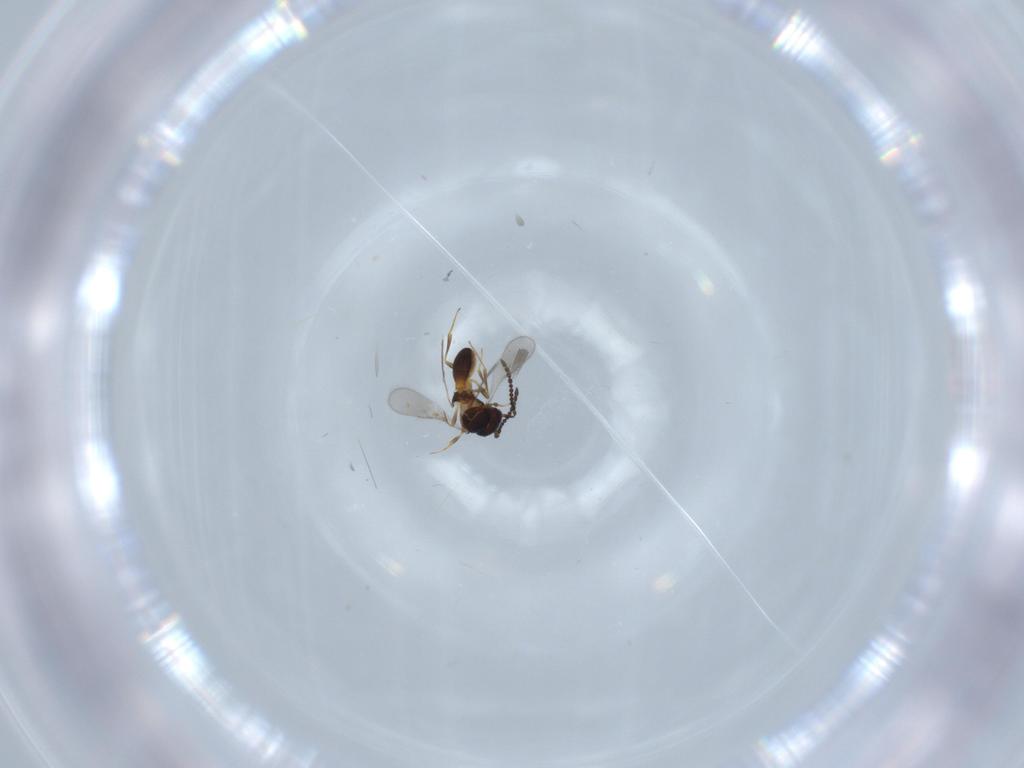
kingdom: Animalia
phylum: Arthropoda
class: Insecta
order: Hymenoptera
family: Scelionidae
